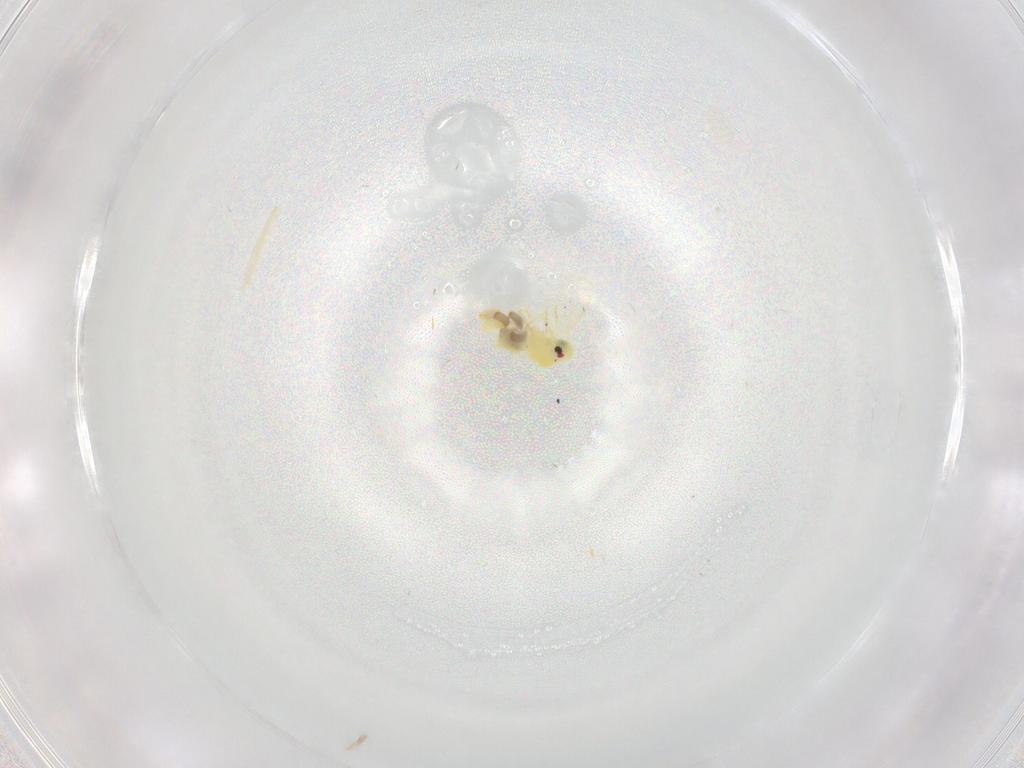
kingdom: Animalia
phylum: Arthropoda
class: Insecta
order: Hemiptera
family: Aleyrodidae
